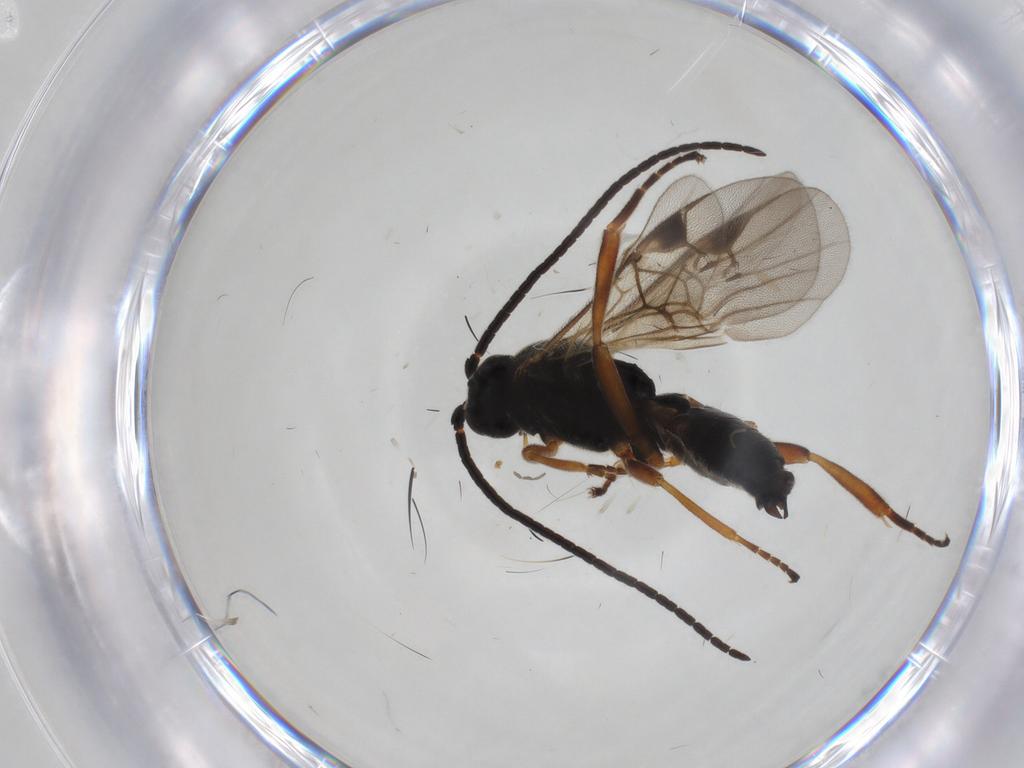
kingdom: Animalia
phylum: Arthropoda
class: Insecta
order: Hymenoptera
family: Braconidae
